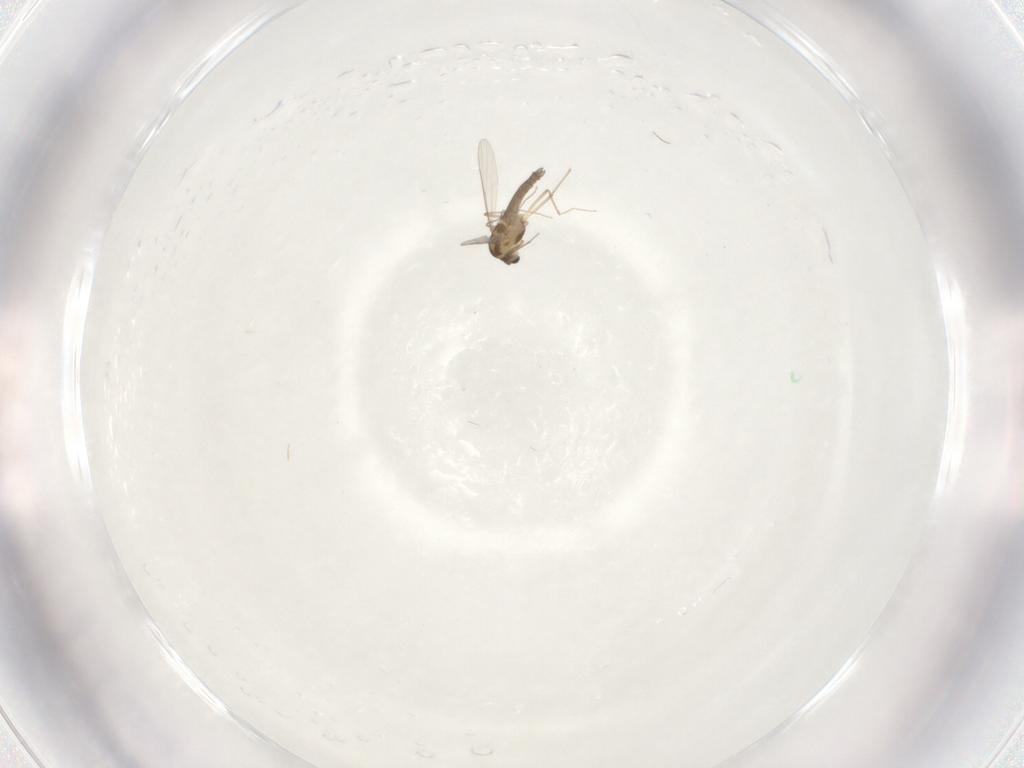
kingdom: Animalia
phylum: Arthropoda
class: Insecta
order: Diptera
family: Chironomidae
